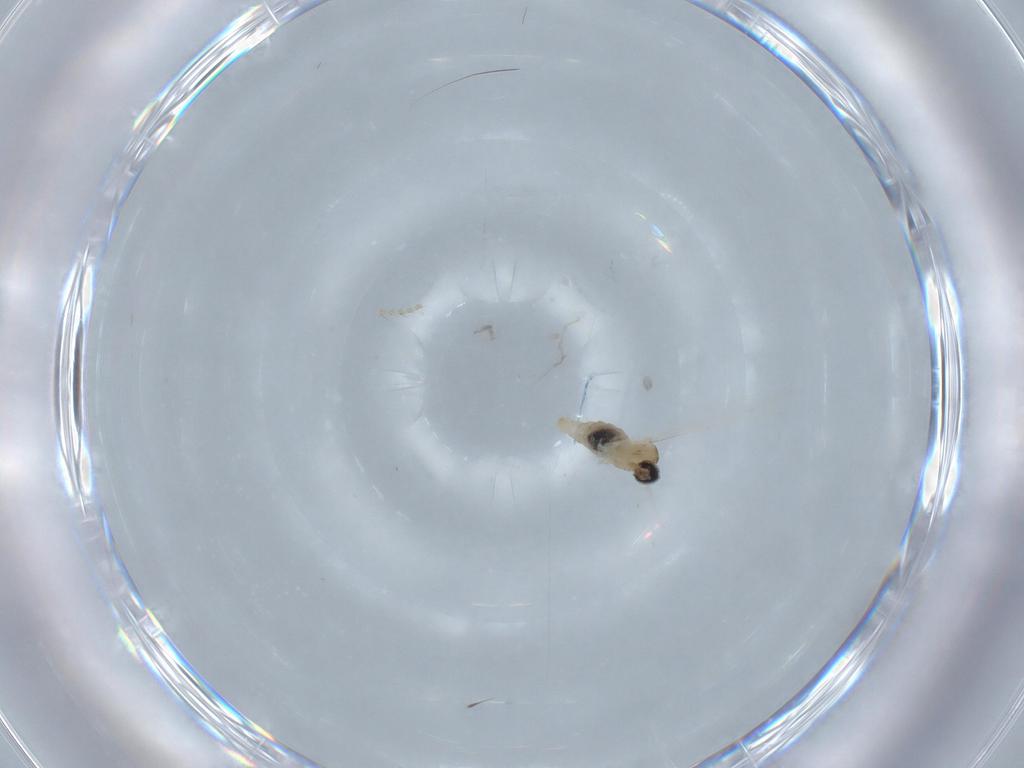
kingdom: Animalia
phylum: Arthropoda
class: Insecta
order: Diptera
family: Limoniidae
